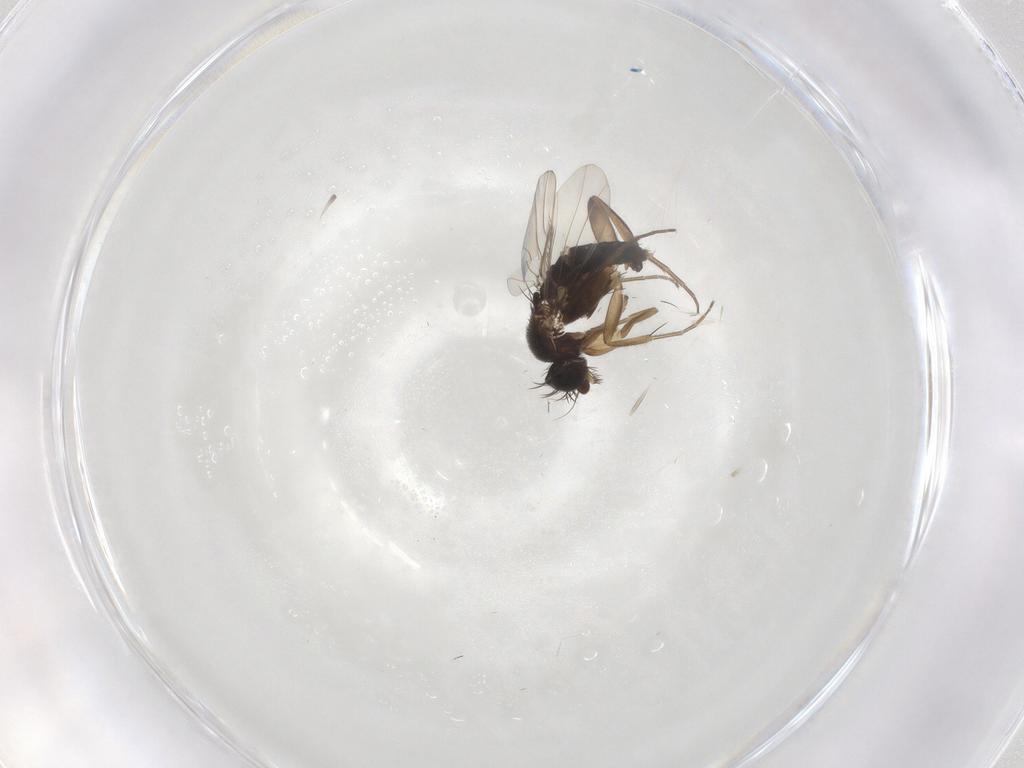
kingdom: Animalia
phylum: Arthropoda
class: Insecta
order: Diptera
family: Phoridae
